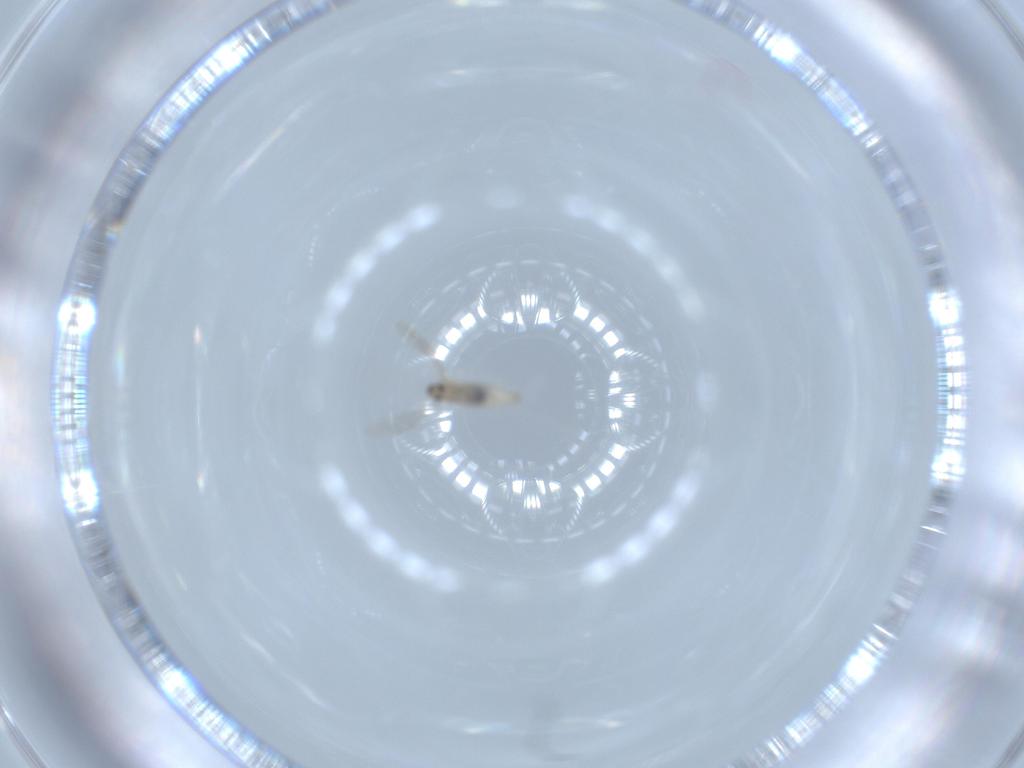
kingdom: Animalia
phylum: Arthropoda
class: Insecta
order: Diptera
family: Cecidomyiidae
